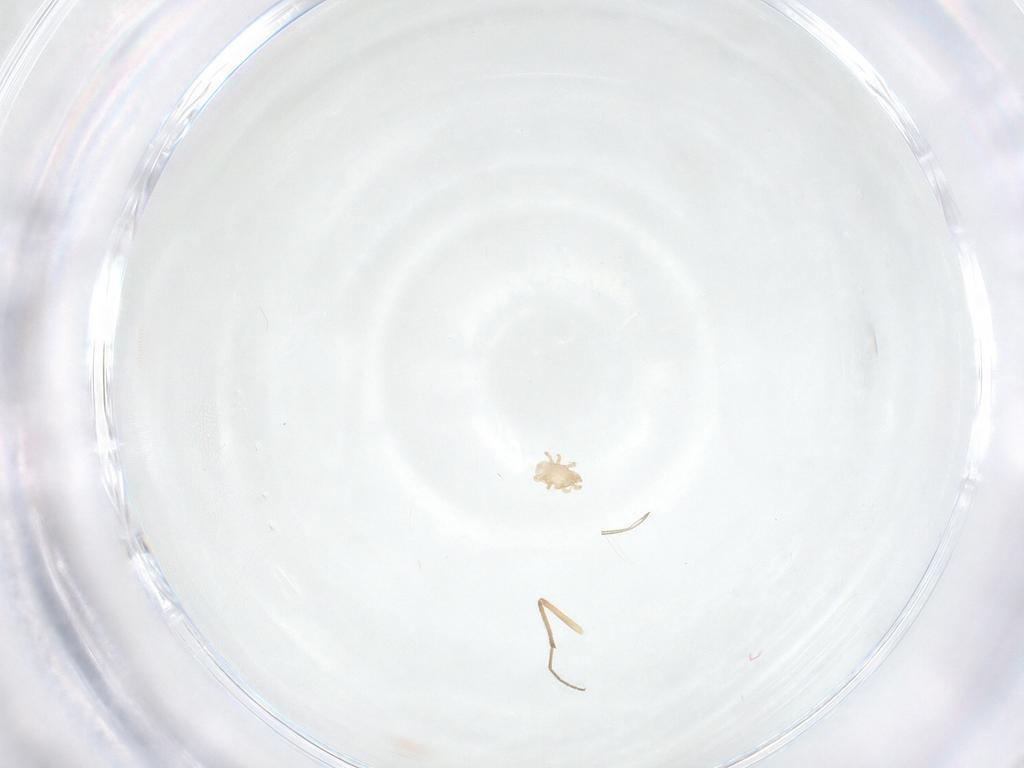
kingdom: Animalia
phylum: Arthropoda
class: Insecta
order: Diptera
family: Chironomidae
